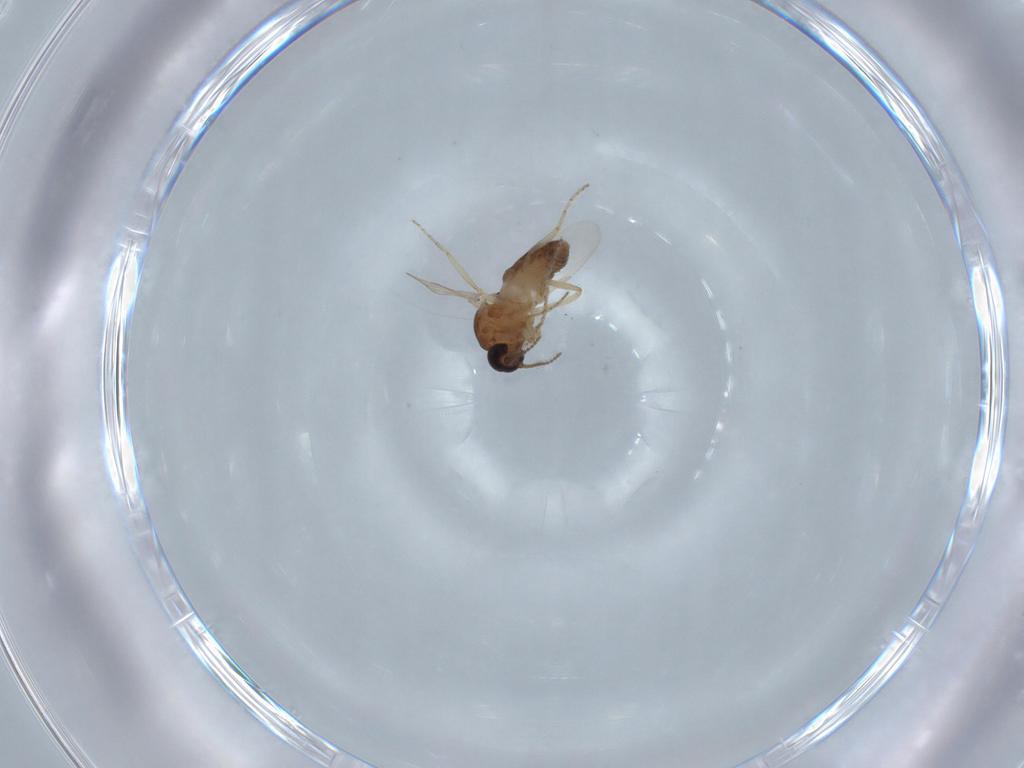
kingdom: Animalia
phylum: Arthropoda
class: Insecta
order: Diptera
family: Ceratopogonidae
